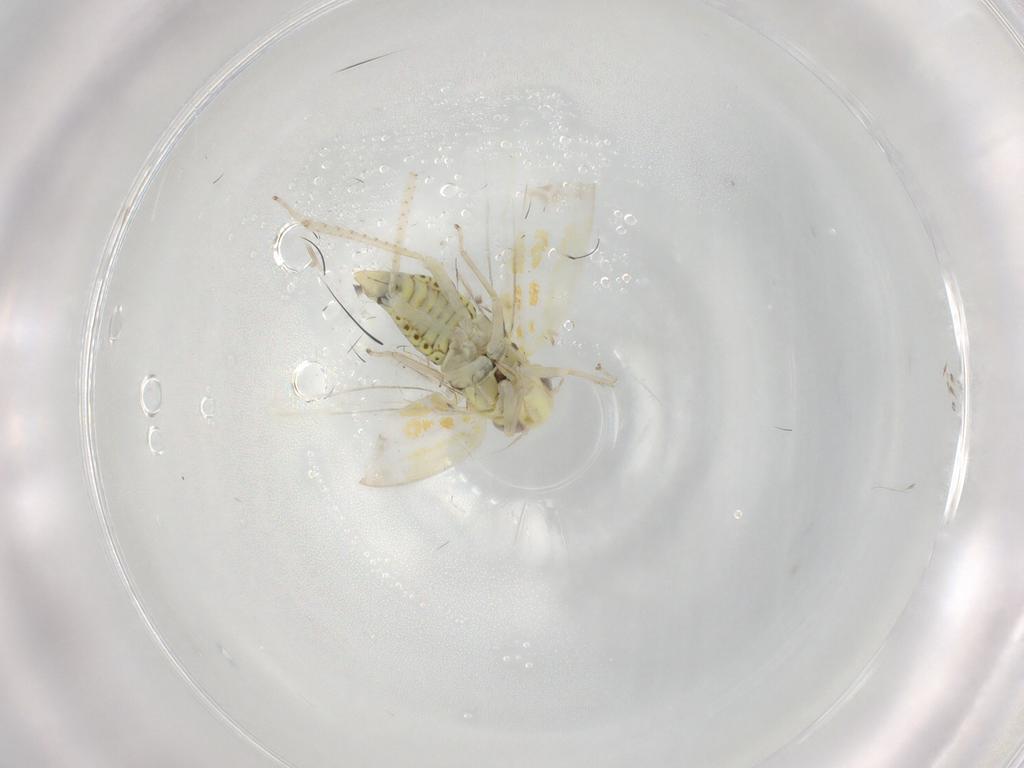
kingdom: Animalia
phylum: Arthropoda
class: Insecta
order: Hemiptera
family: Cicadellidae
